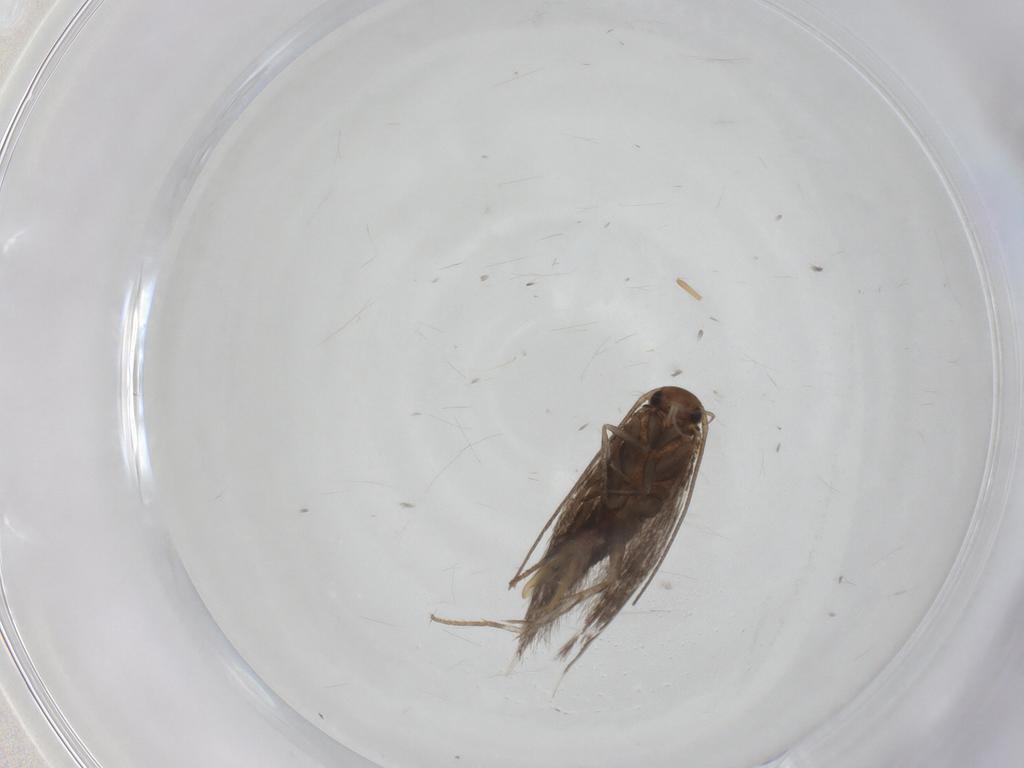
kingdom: Animalia
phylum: Arthropoda
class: Insecta
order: Lepidoptera
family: Elachistidae
